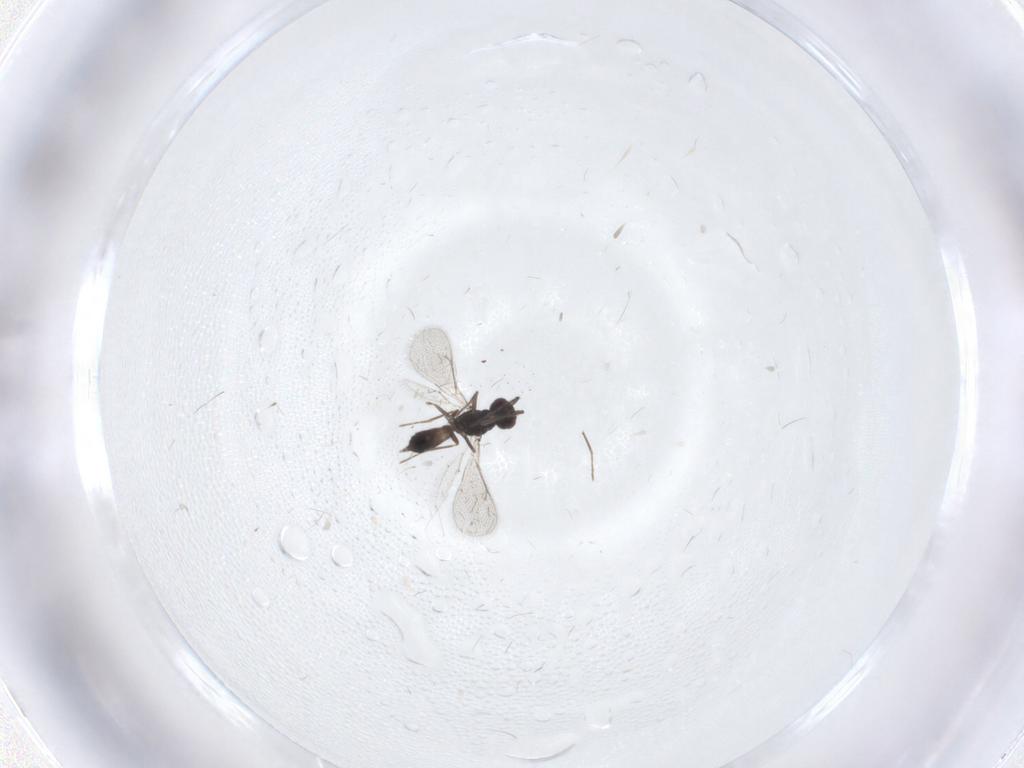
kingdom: Animalia
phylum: Arthropoda
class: Insecta
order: Hymenoptera
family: Eulophidae
